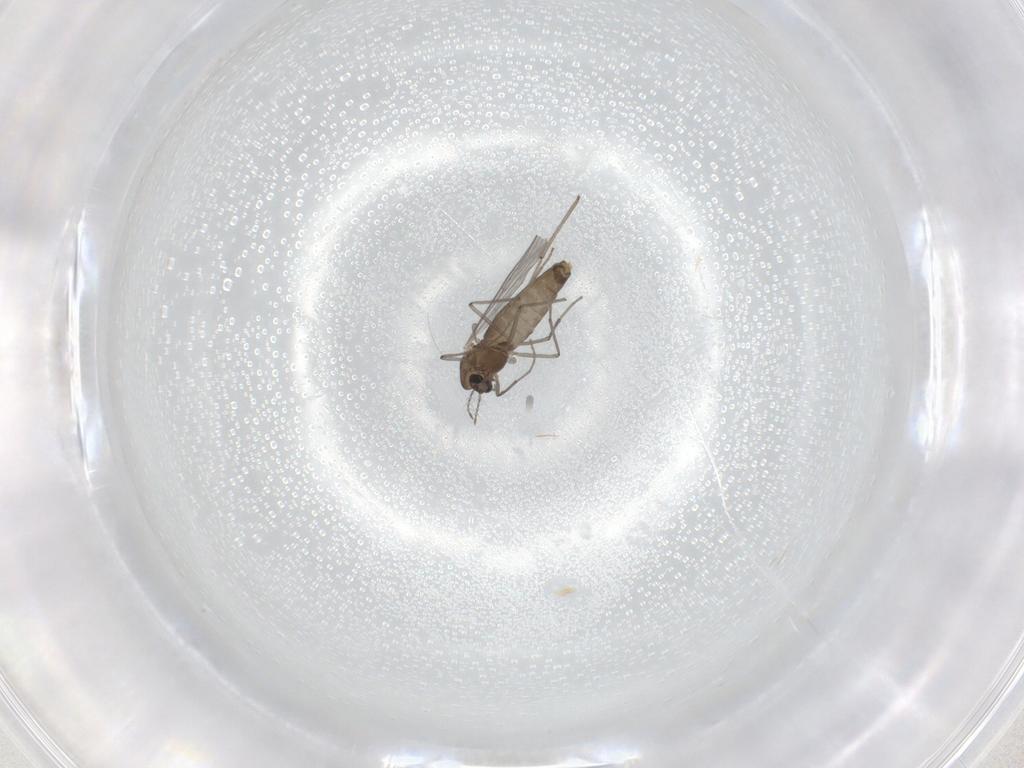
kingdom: Animalia
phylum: Arthropoda
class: Insecta
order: Diptera
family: Chironomidae
